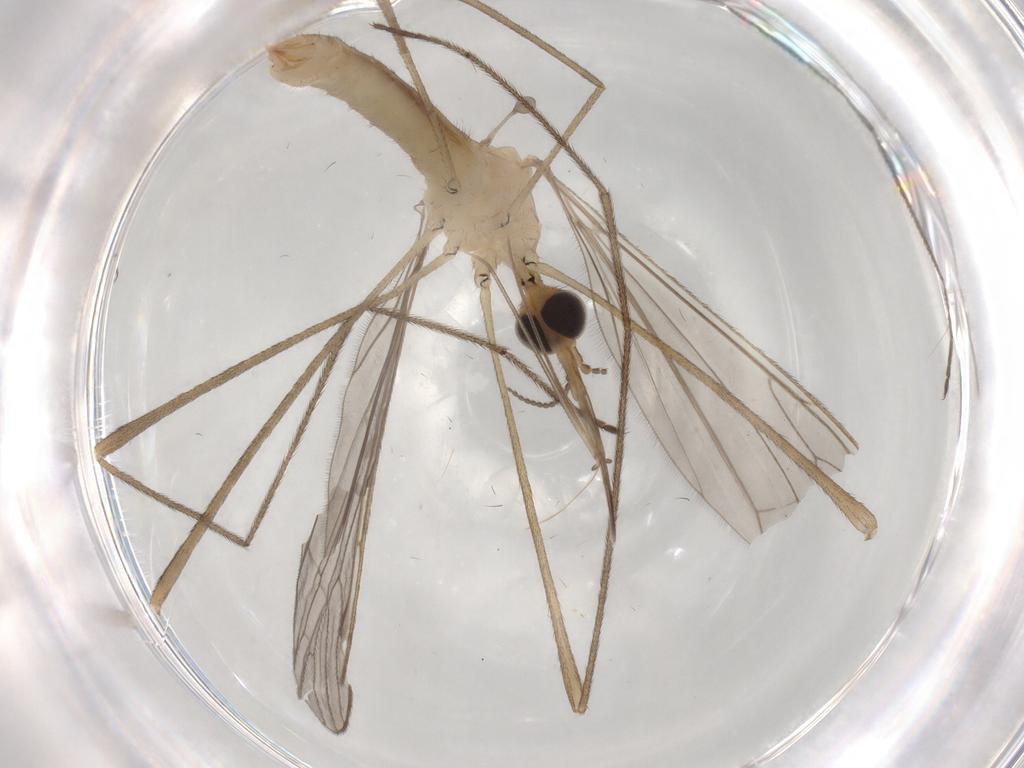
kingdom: Animalia
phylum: Arthropoda
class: Insecta
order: Diptera
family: Limoniidae
